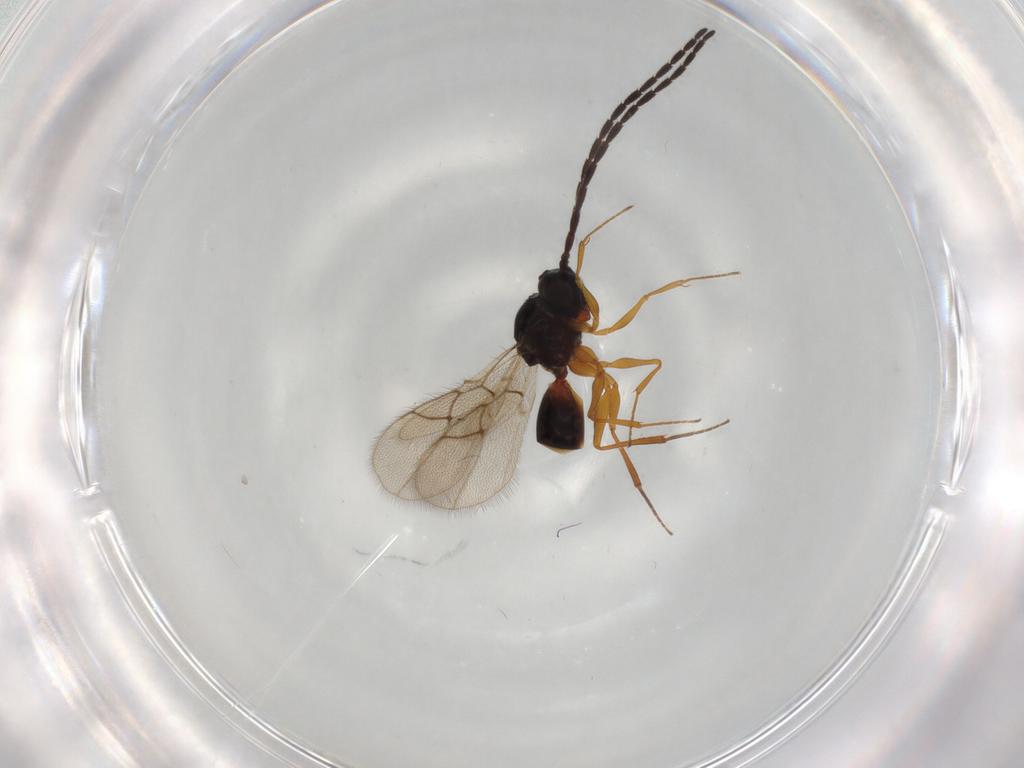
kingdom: Animalia
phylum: Arthropoda
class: Insecta
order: Hymenoptera
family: Figitidae
